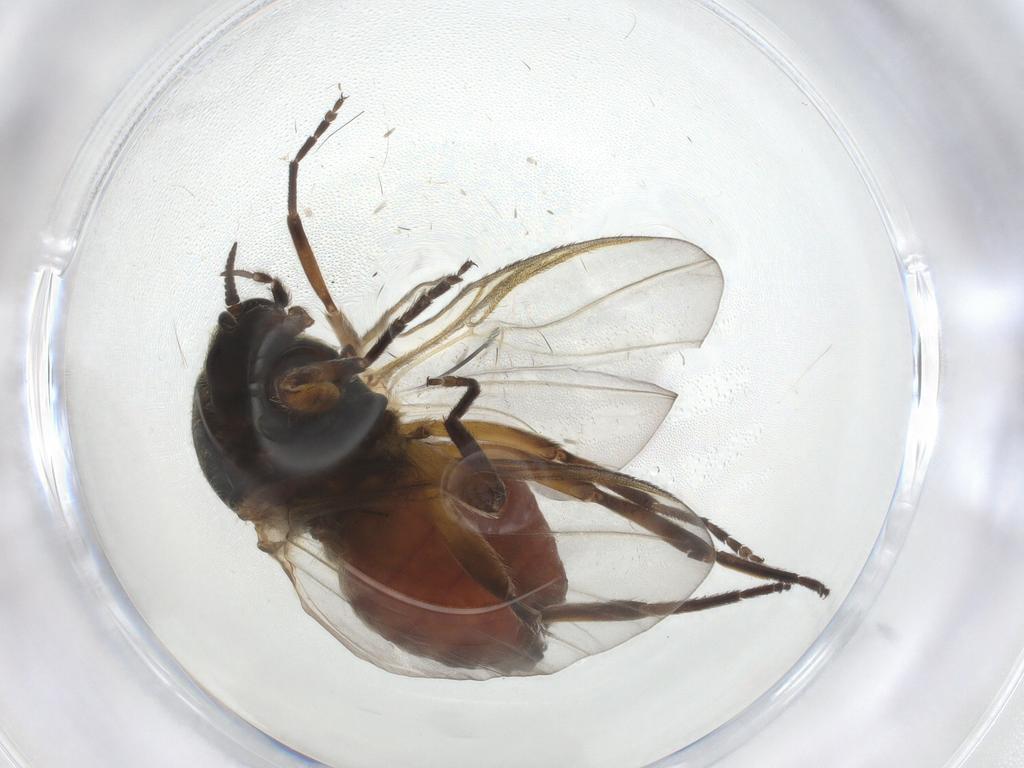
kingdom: Animalia
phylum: Arthropoda
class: Insecta
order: Diptera
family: Simuliidae
